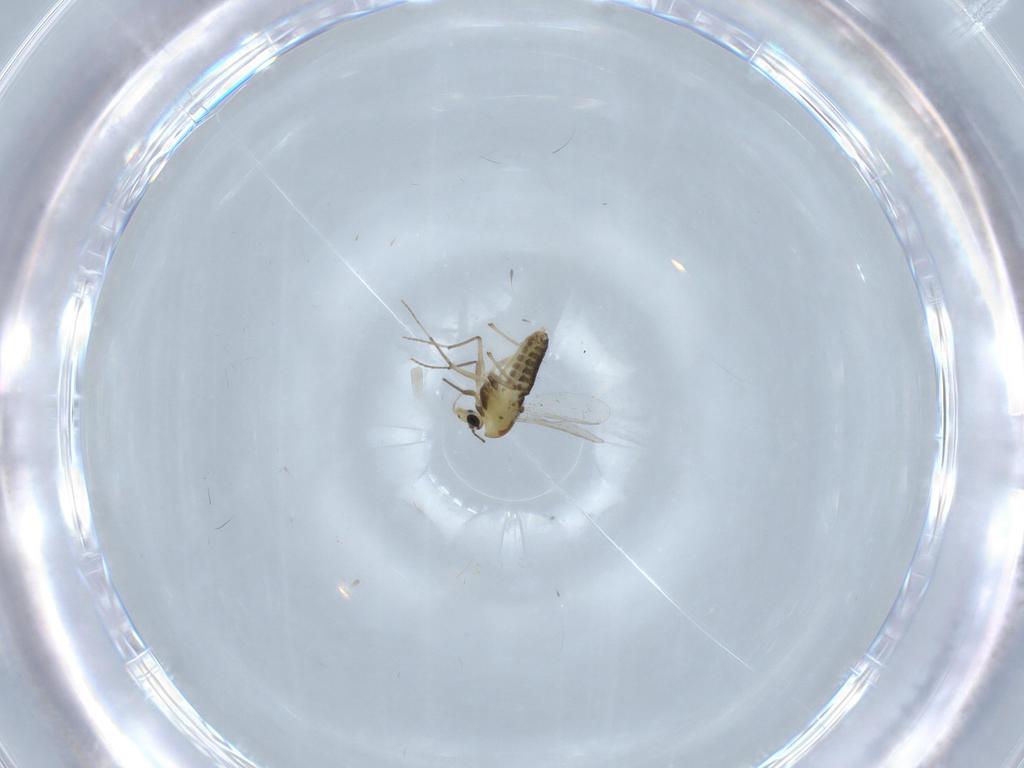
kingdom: Animalia
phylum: Arthropoda
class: Insecta
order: Diptera
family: Chironomidae
